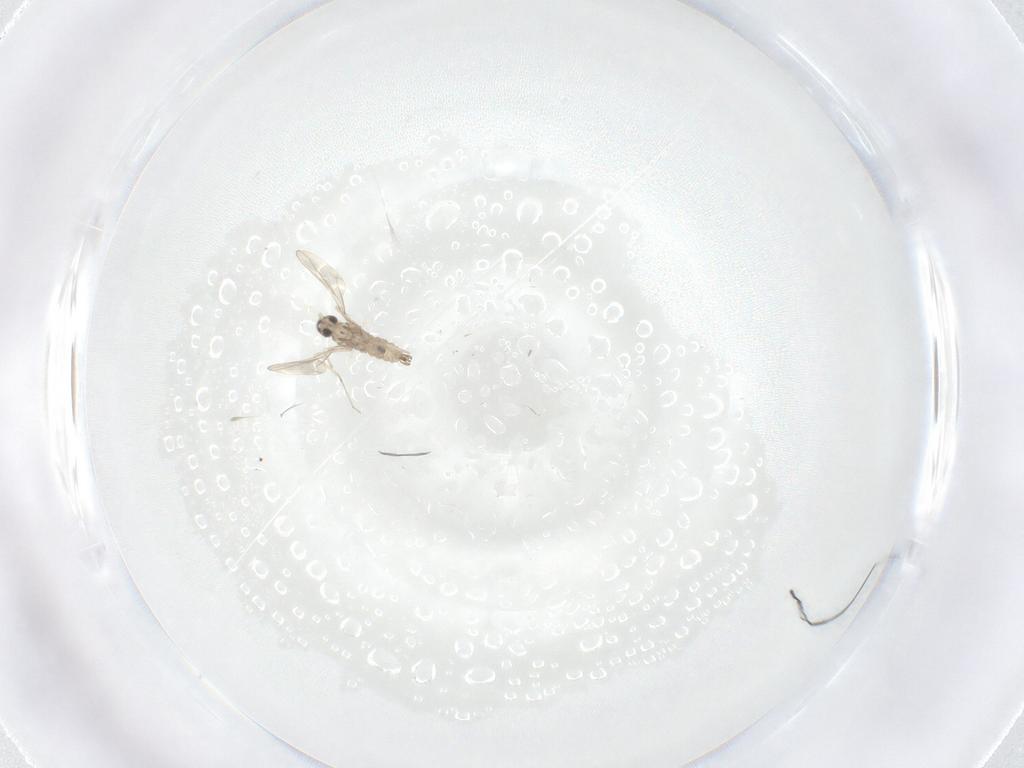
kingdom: Animalia
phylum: Arthropoda
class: Insecta
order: Diptera
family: Cecidomyiidae
